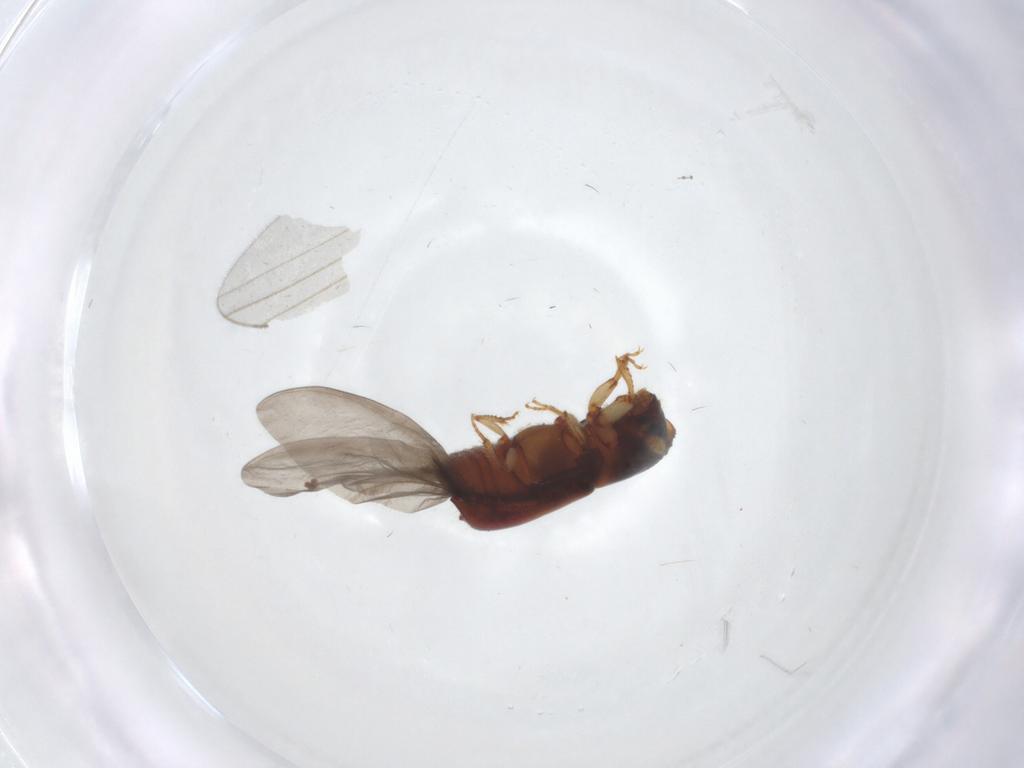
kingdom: Animalia
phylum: Arthropoda
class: Insecta
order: Coleoptera
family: Curculionidae
